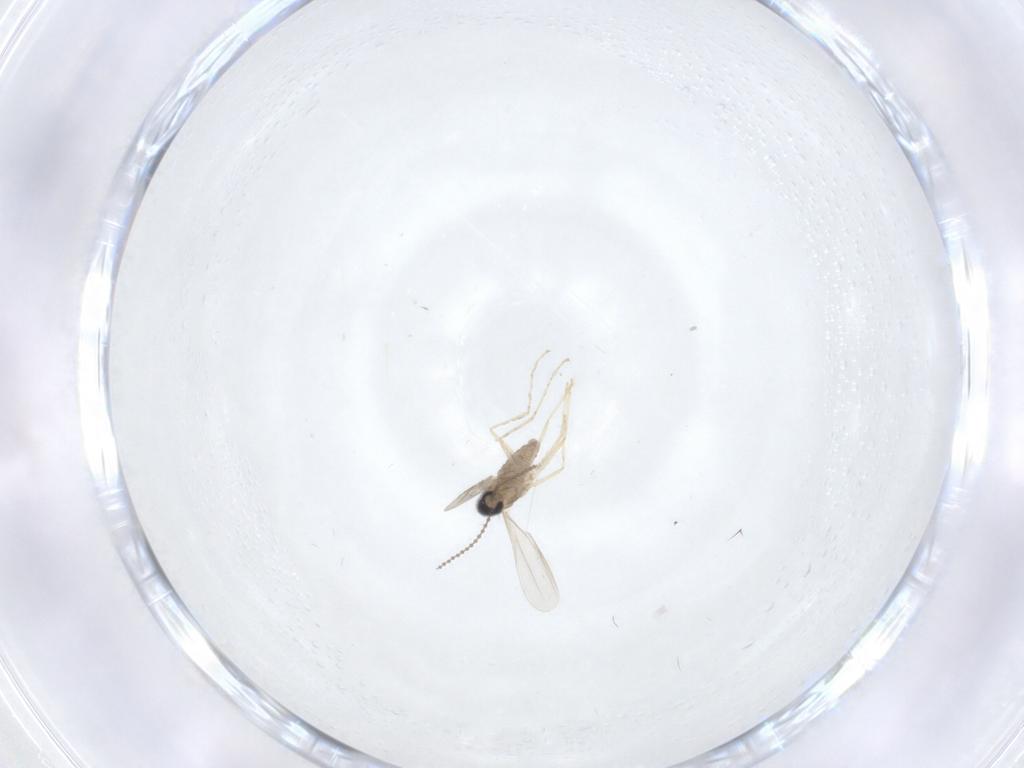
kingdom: Animalia
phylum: Arthropoda
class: Insecta
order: Diptera
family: Cecidomyiidae
